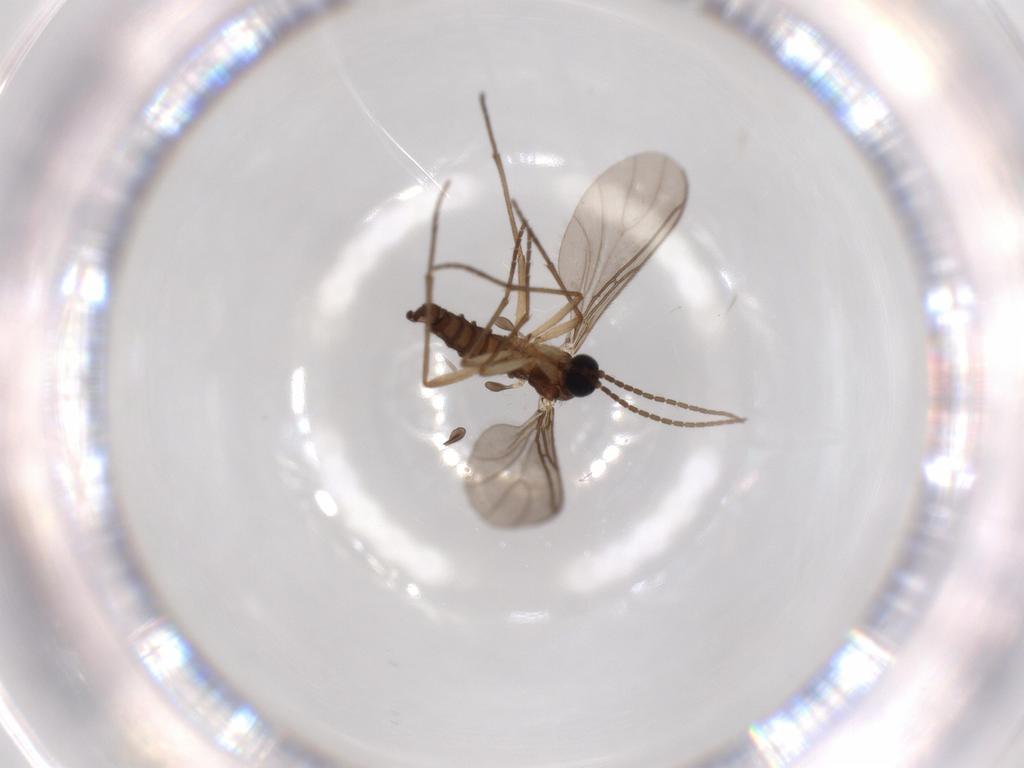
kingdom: Animalia
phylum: Arthropoda
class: Insecta
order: Diptera
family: Sciaridae
